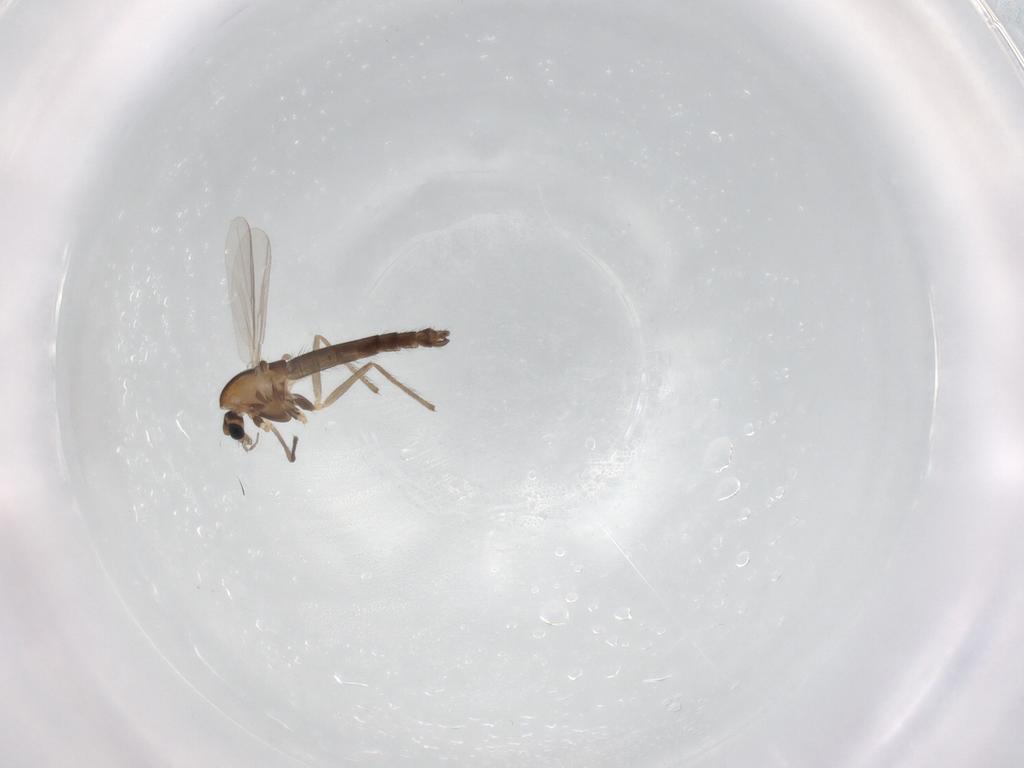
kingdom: Animalia
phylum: Arthropoda
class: Insecta
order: Diptera
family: Chironomidae
